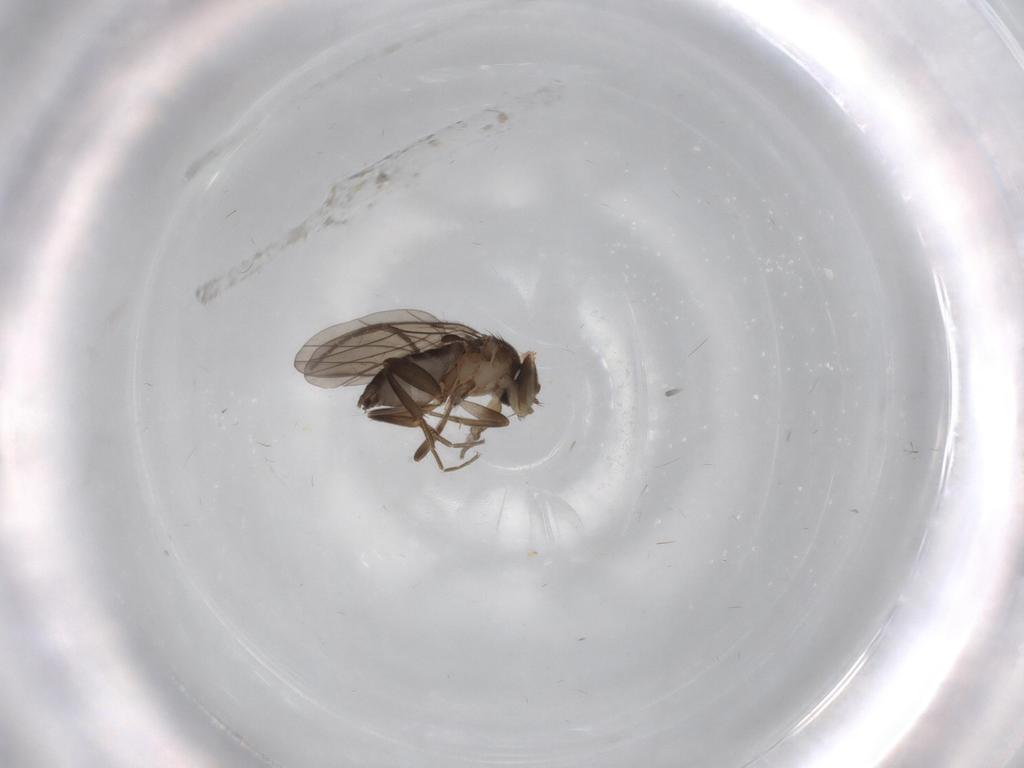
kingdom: Animalia
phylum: Arthropoda
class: Insecta
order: Diptera
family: Phoridae
